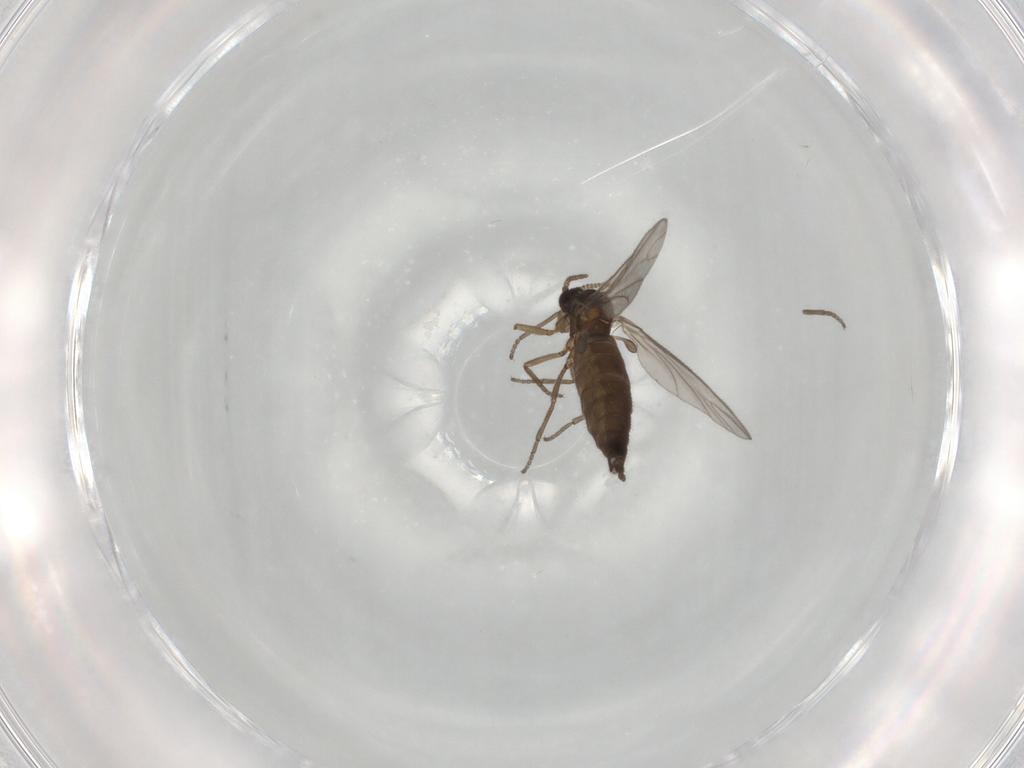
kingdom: Animalia
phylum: Arthropoda
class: Insecta
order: Diptera
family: Sciaridae
